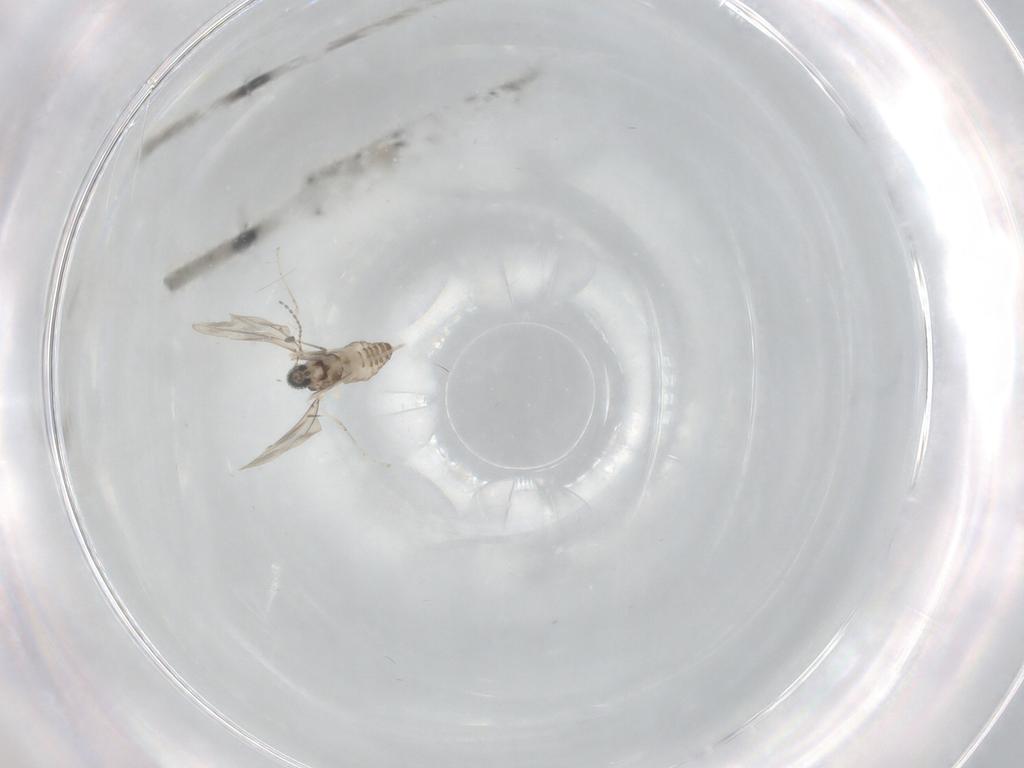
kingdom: Animalia
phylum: Arthropoda
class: Insecta
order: Diptera
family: Cecidomyiidae
